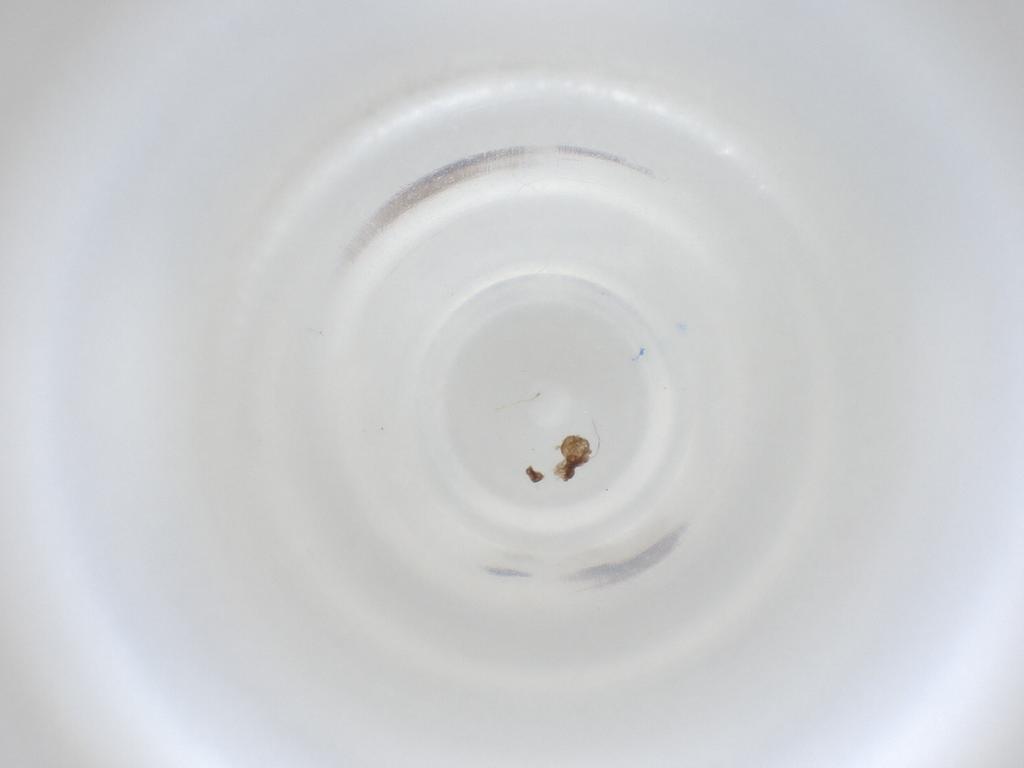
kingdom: Animalia
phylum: Arthropoda
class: Insecta
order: Diptera
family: Cecidomyiidae
